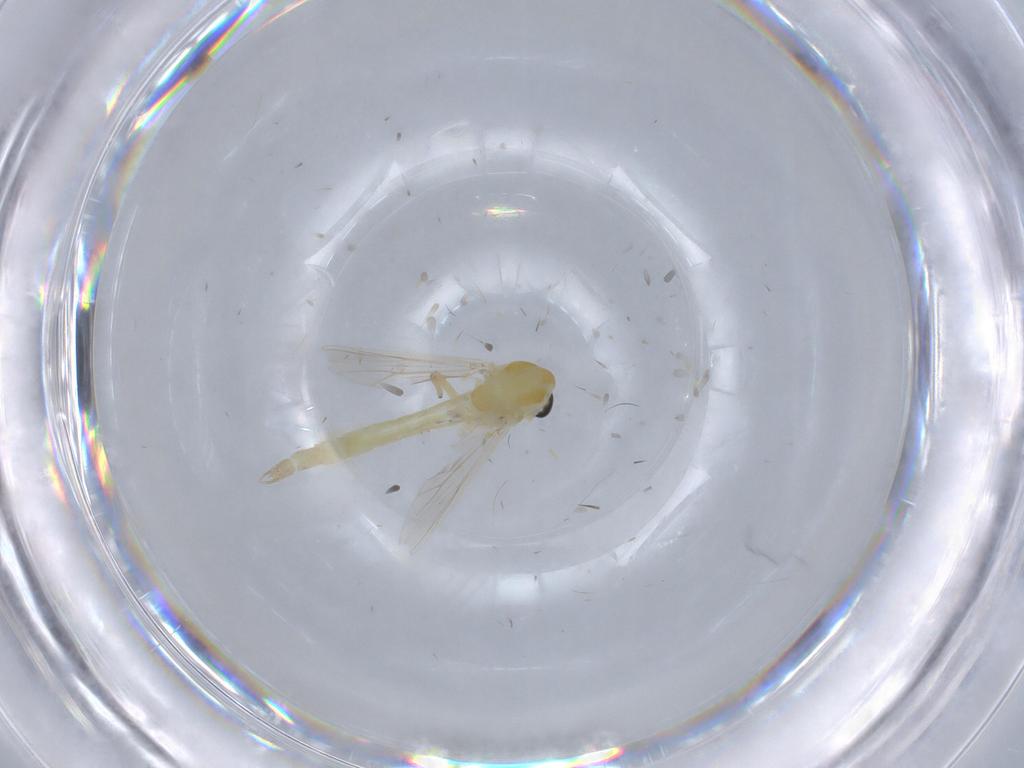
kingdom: Animalia
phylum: Arthropoda
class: Insecta
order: Diptera
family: Chironomidae
